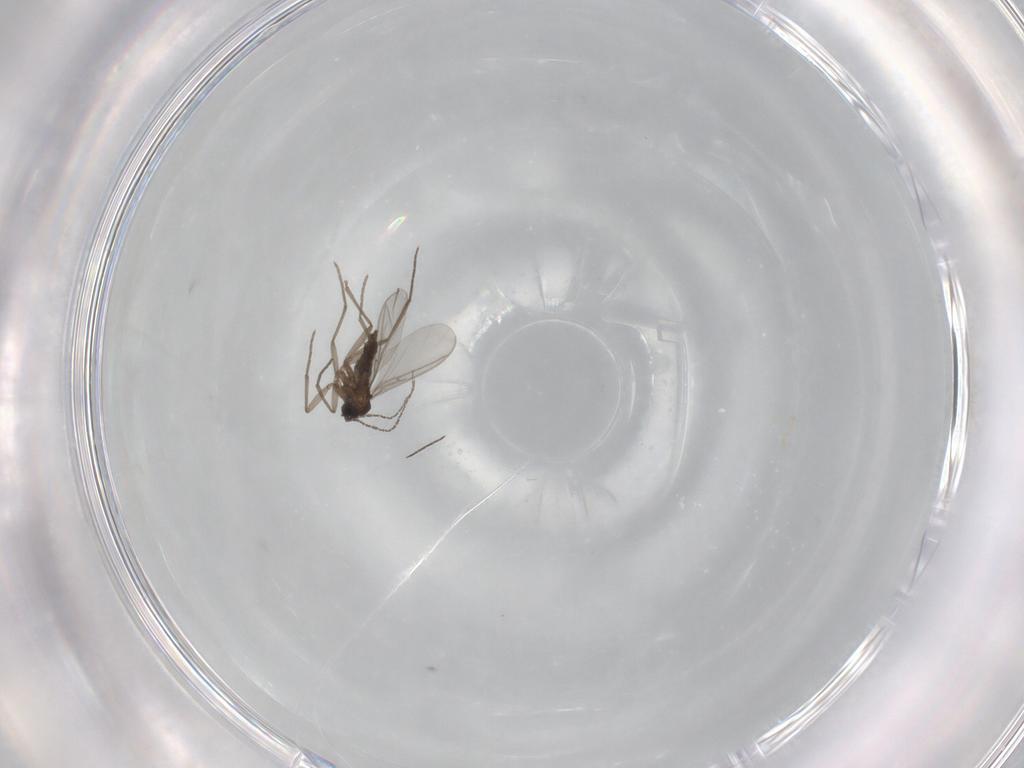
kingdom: Animalia
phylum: Arthropoda
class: Insecta
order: Diptera
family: Sciaridae
